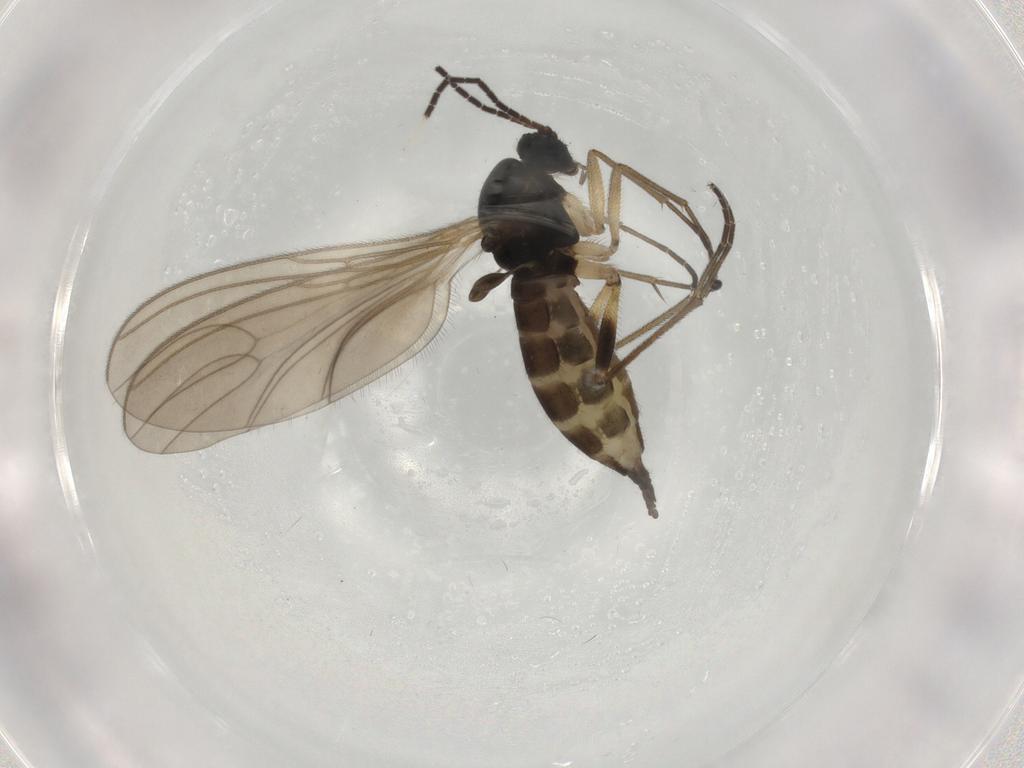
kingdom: Animalia
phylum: Arthropoda
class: Insecta
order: Diptera
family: Sciaridae
